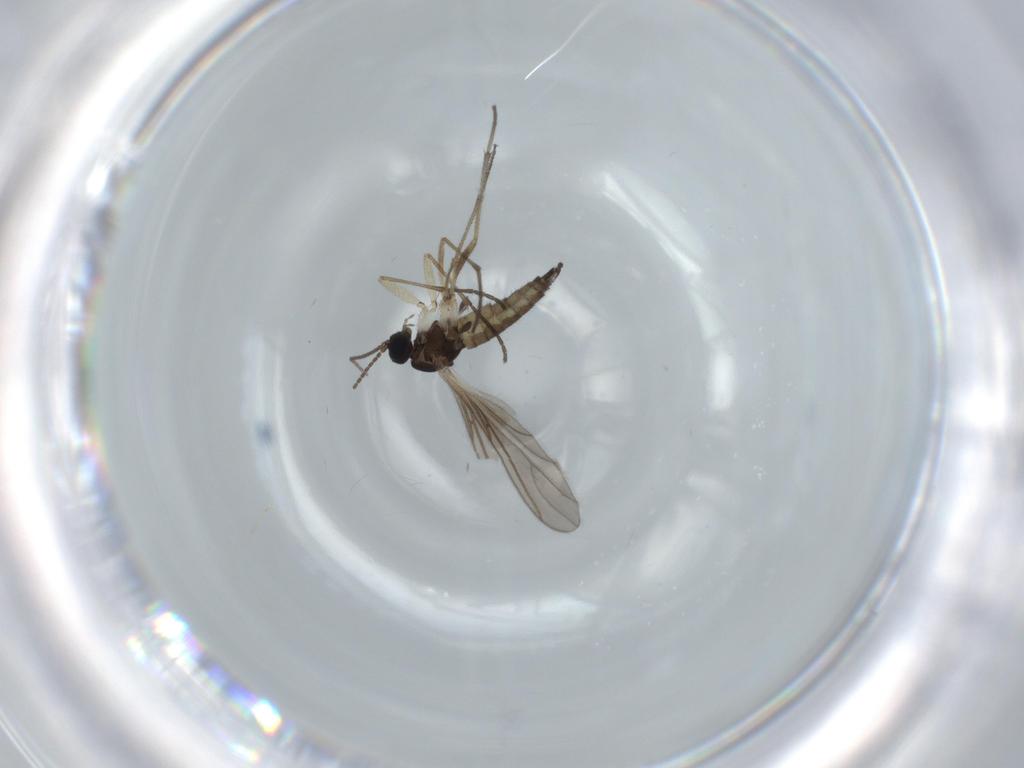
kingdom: Animalia
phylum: Arthropoda
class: Insecta
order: Diptera
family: Sciaridae
